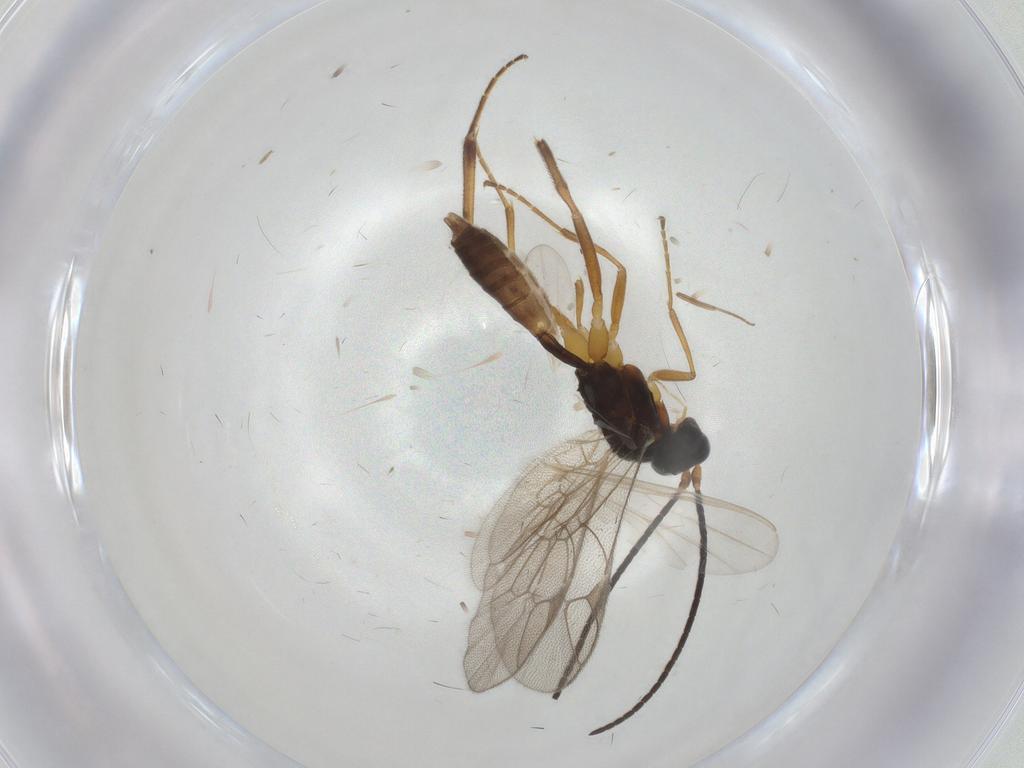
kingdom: Animalia
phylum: Arthropoda
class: Insecta
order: Hymenoptera
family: Ichneumonidae
